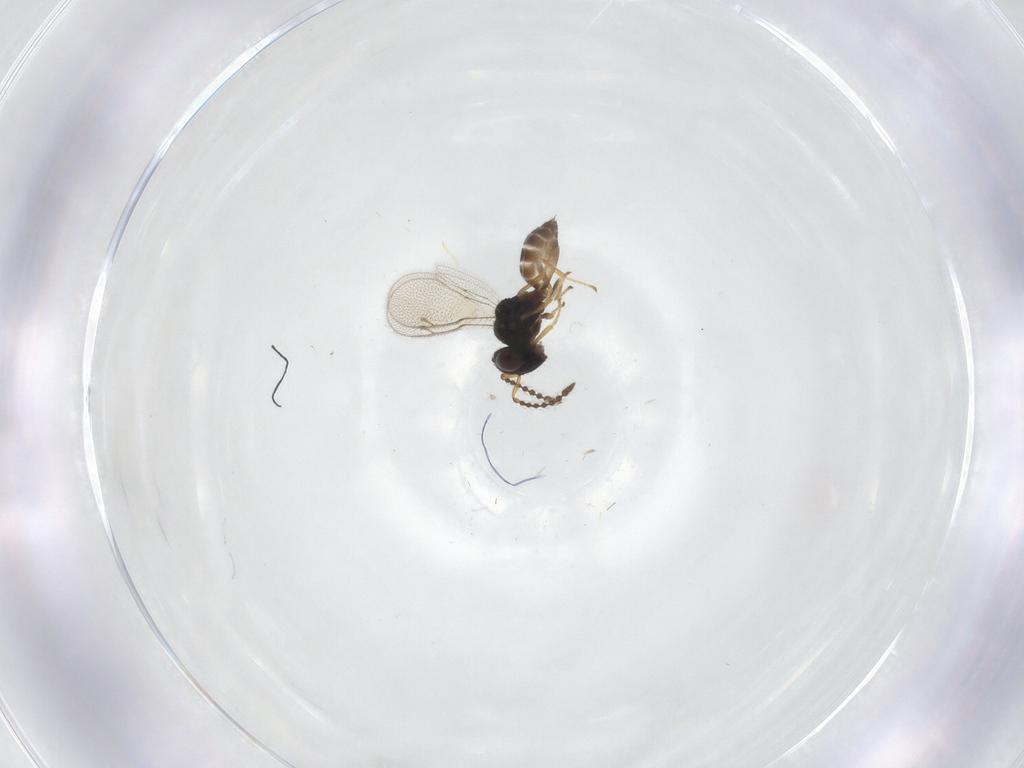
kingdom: Animalia
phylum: Arthropoda
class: Insecta
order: Hymenoptera
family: Pteromalidae
